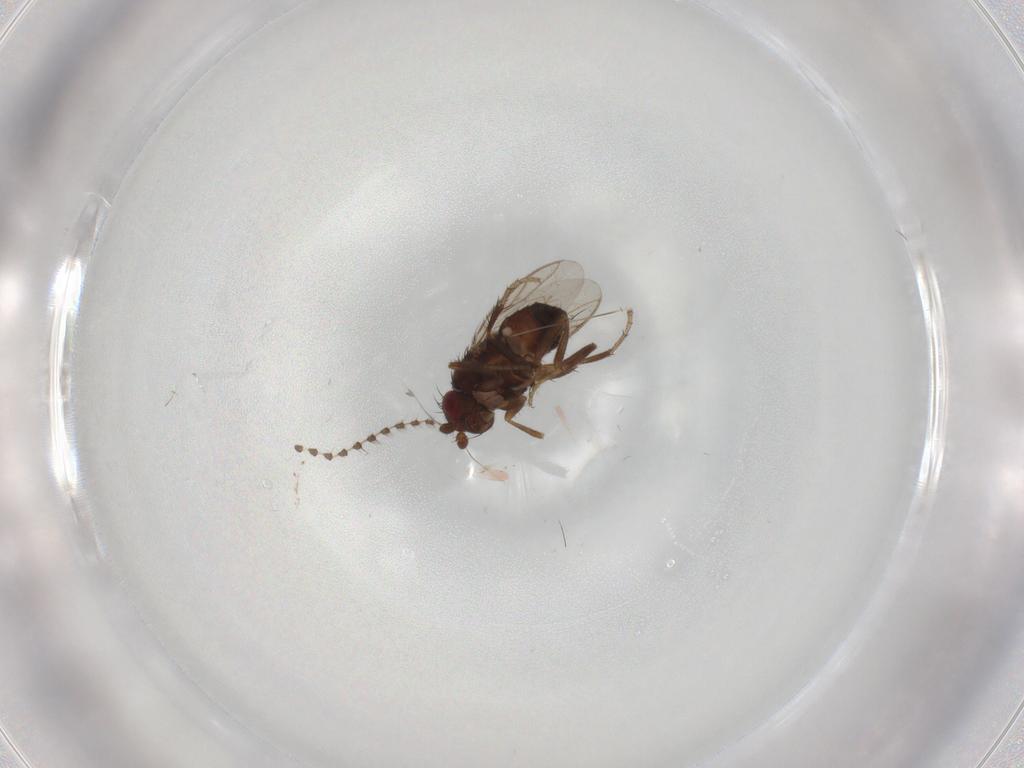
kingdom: Animalia
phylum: Arthropoda
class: Insecta
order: Diptera
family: Sphaeroceridae
